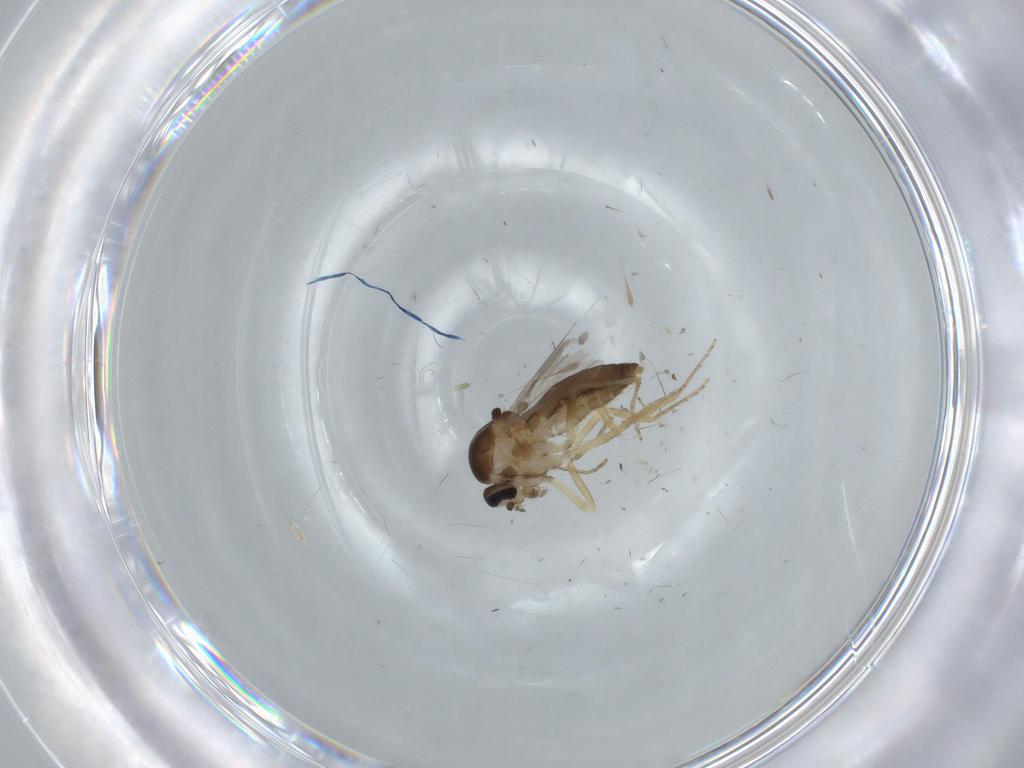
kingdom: Animalia
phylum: Arthropoda
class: Insecta
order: Diptera
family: Ceratopogonidae
